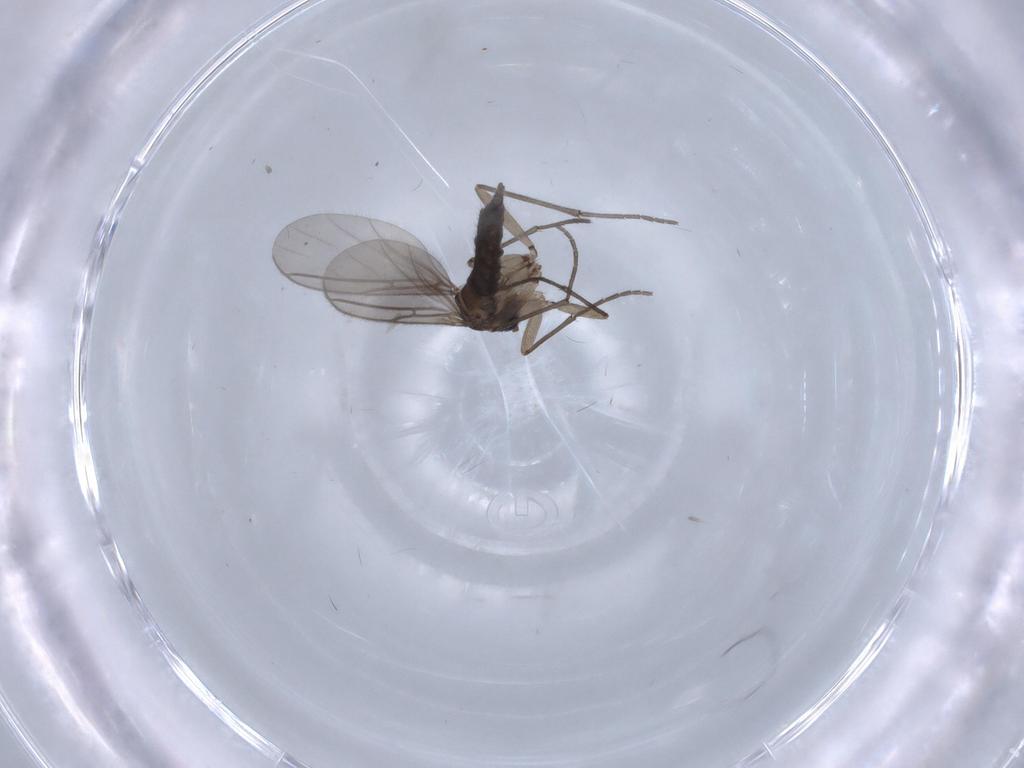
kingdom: Animalia
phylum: Arthropoda
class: Insecta
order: Diptera
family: Sciaridae
